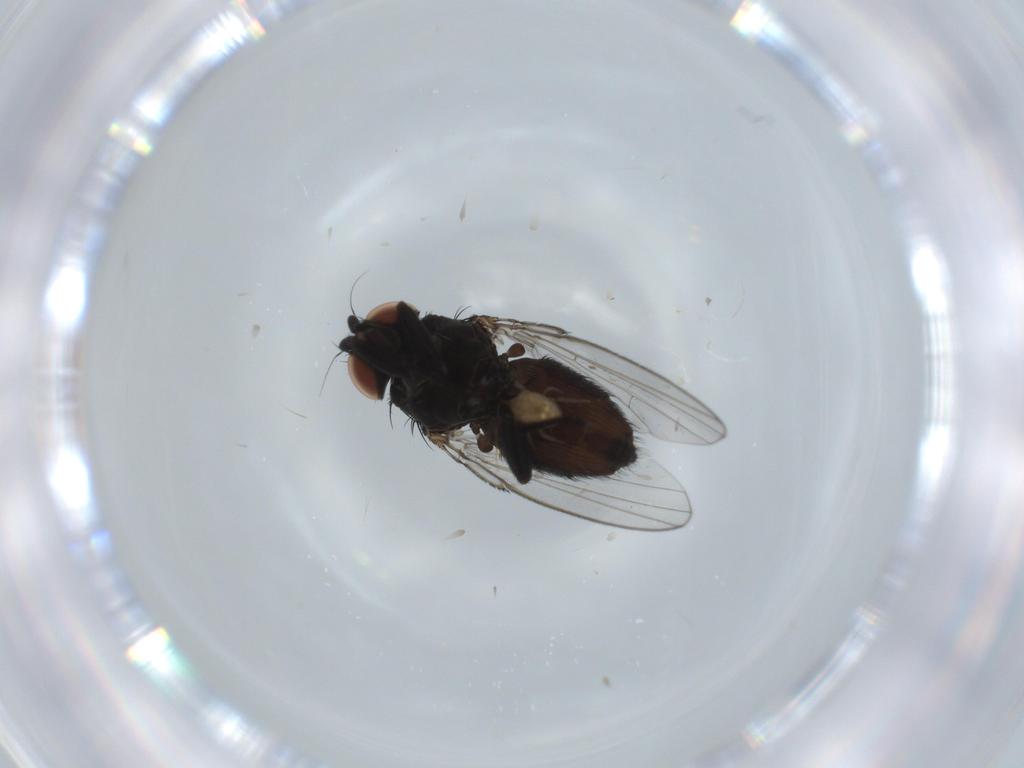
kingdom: Animalia
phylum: Arthropoda
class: Insecta
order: Diptera
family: Milichiidae
